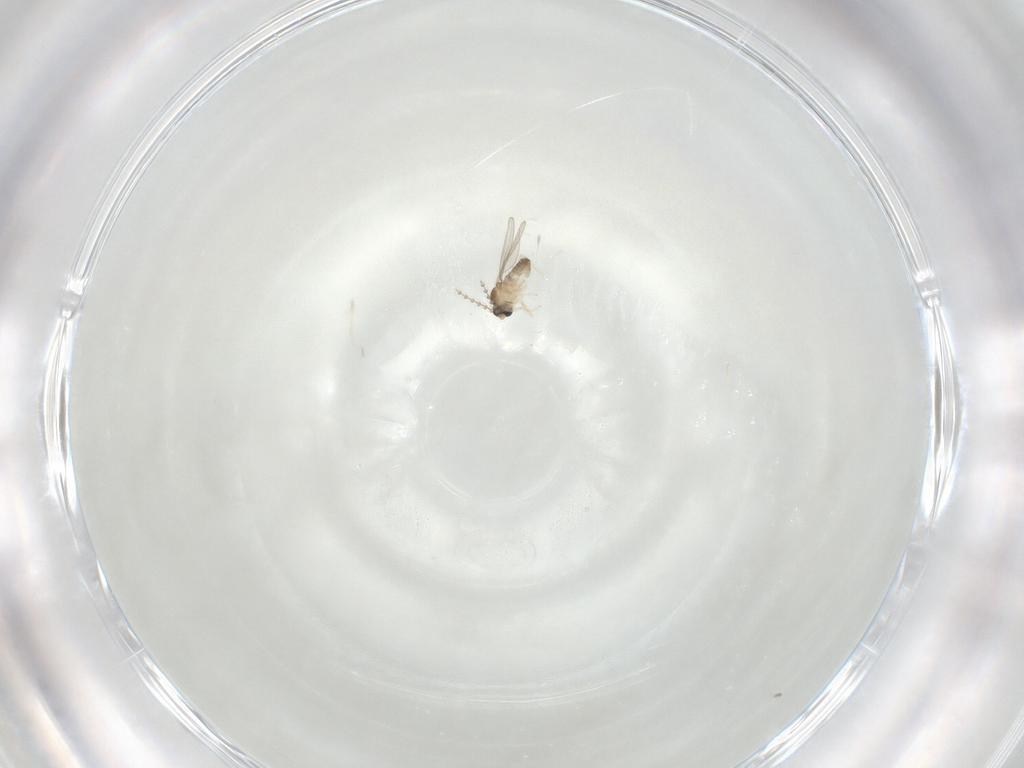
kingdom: Animalia
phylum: Arthropoda
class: Insecta
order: Diptera
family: Cecidomyiidae
